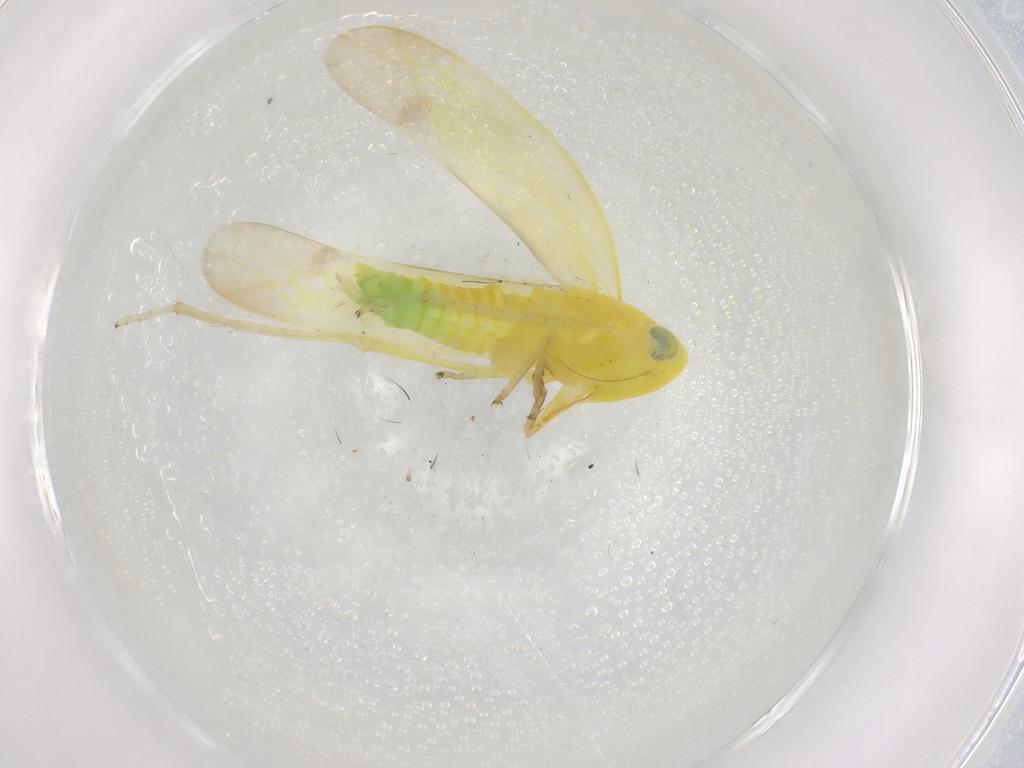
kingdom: Animalia
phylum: Arthropoda
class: Insecta
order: Hemiptera
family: Cicadellidae
